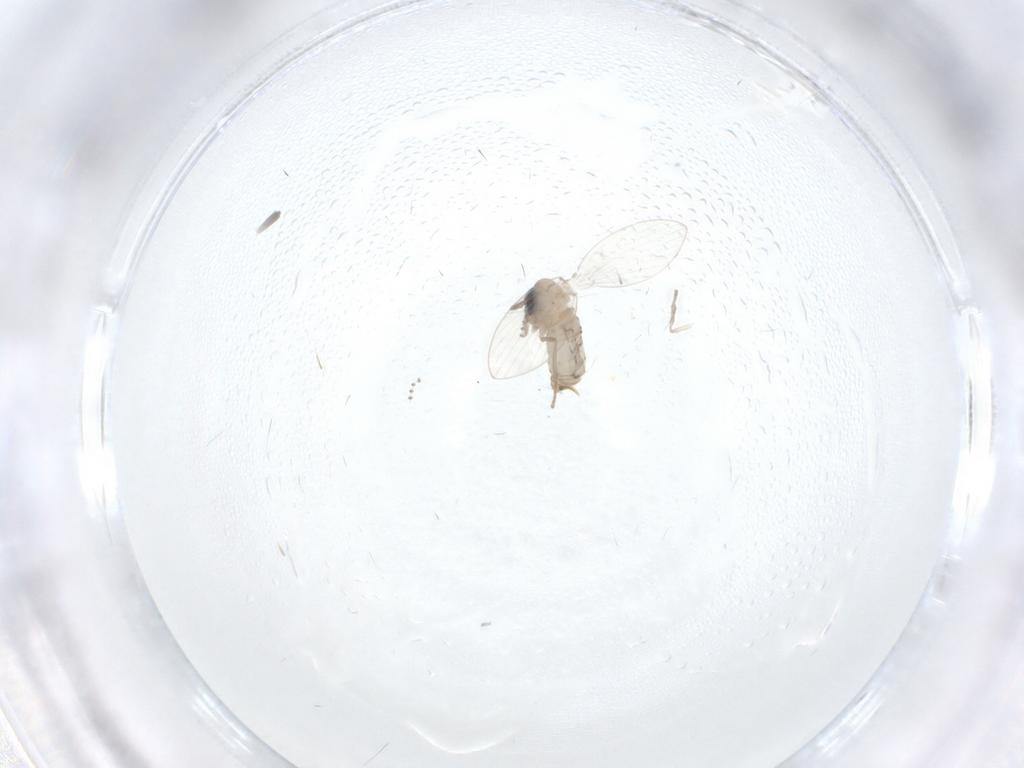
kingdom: Animalia
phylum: Arthropoda
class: Insecta
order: Diptera
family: Psychodidae
